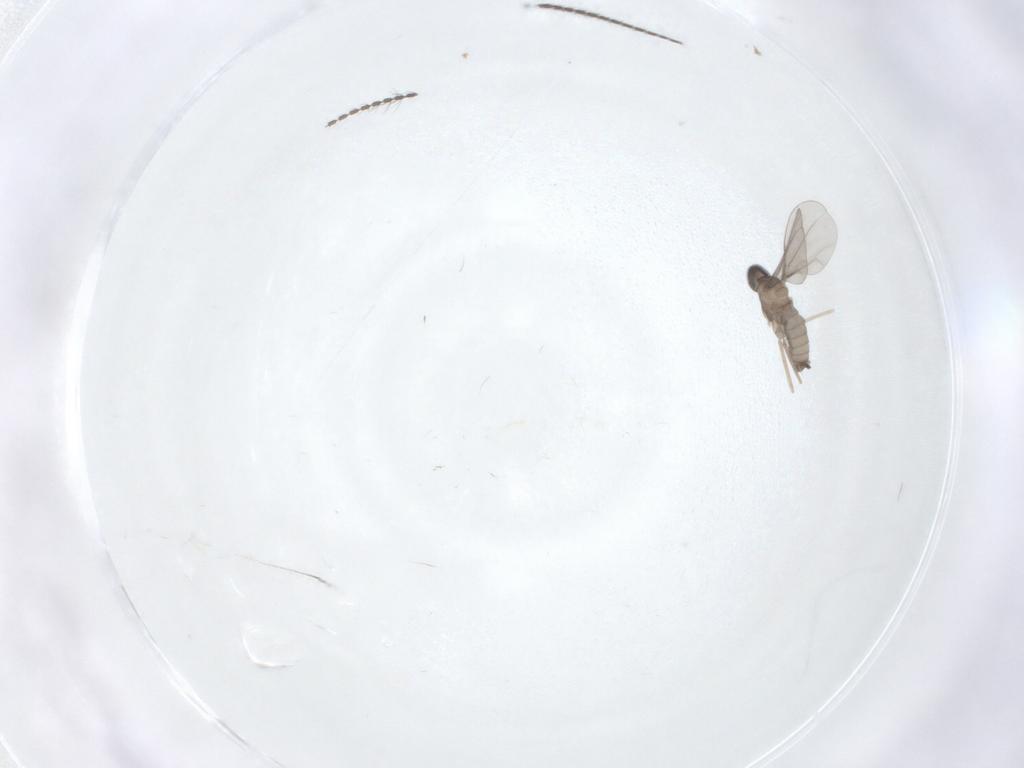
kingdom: Animalia
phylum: Arthropoda
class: Insecta
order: Diptera
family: Cecidomyiidae
